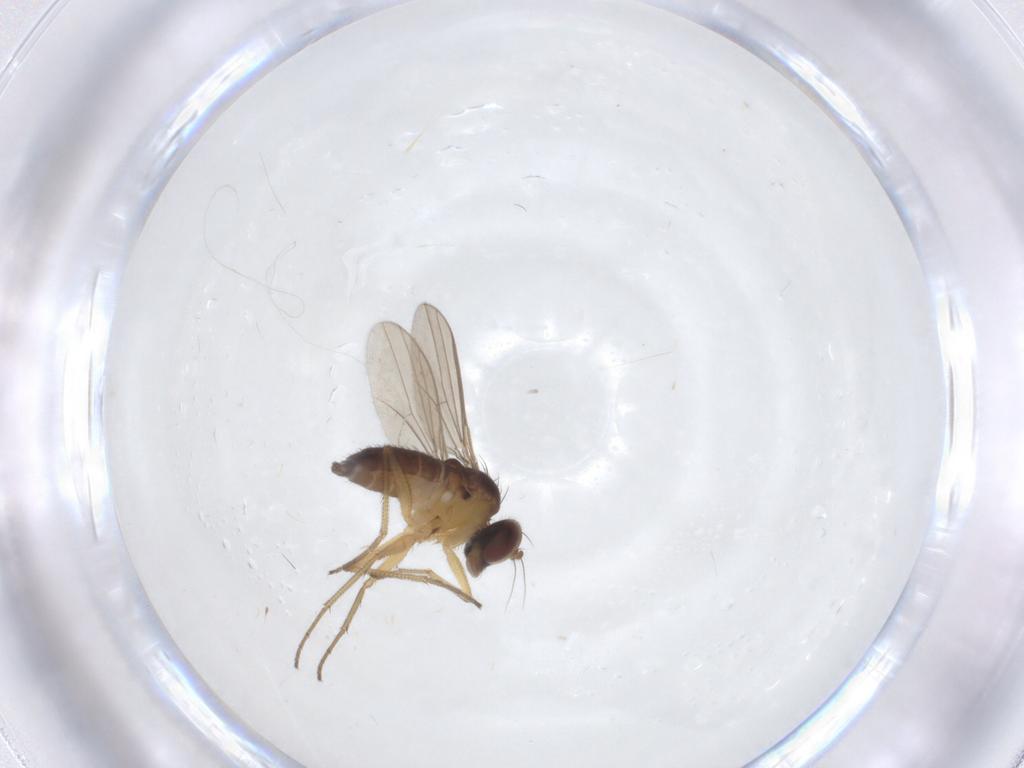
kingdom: Animalia
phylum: Arthropoda
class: Insecta
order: Diptera
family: Dolichopodidae
